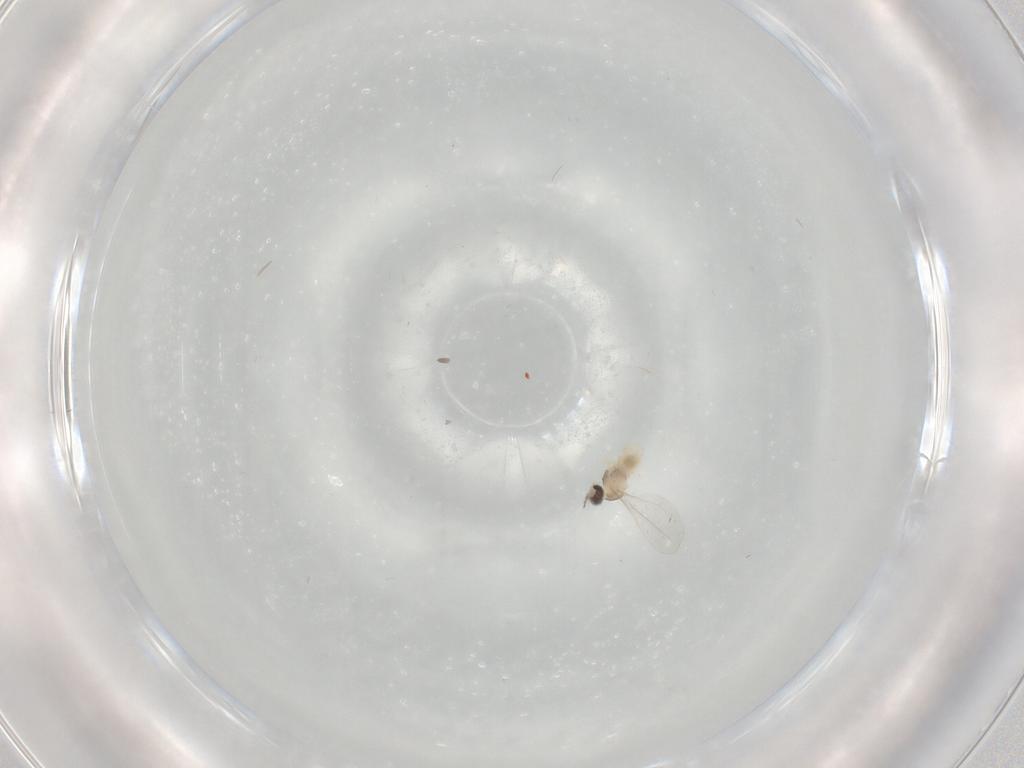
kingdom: Animalia
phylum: Arthropoda
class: Insecta
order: Diptera
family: Cecidomyiidae
